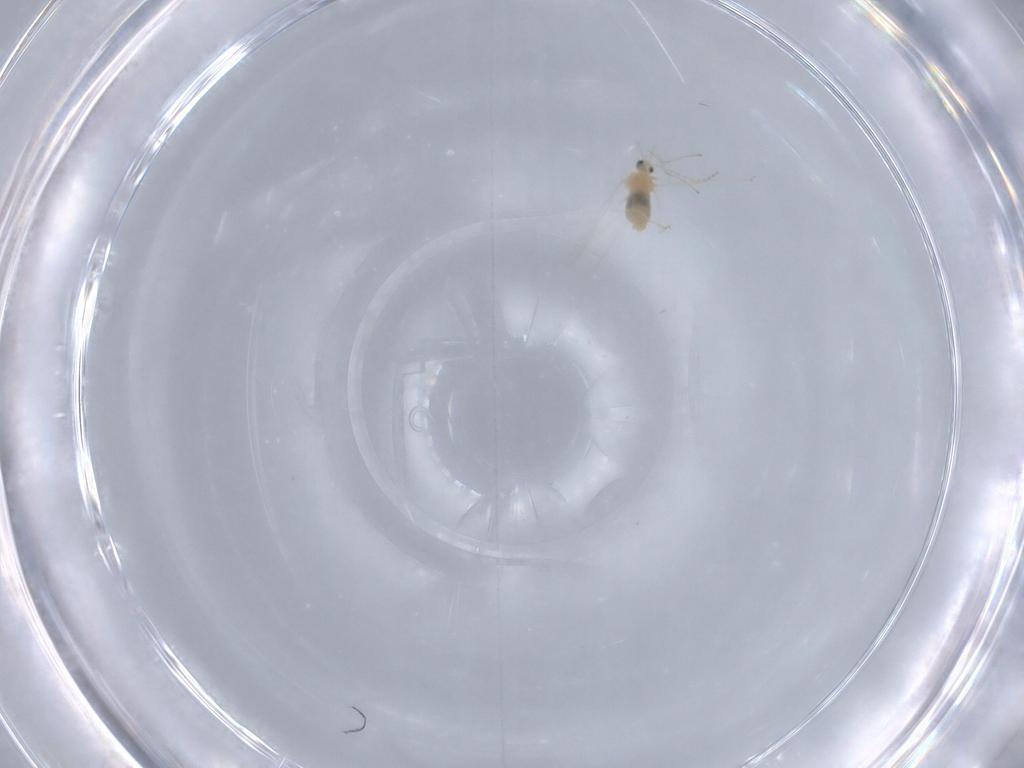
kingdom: Animalia
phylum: Arthropoda
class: Insecta
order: Diptera
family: Cecidomyiidae
